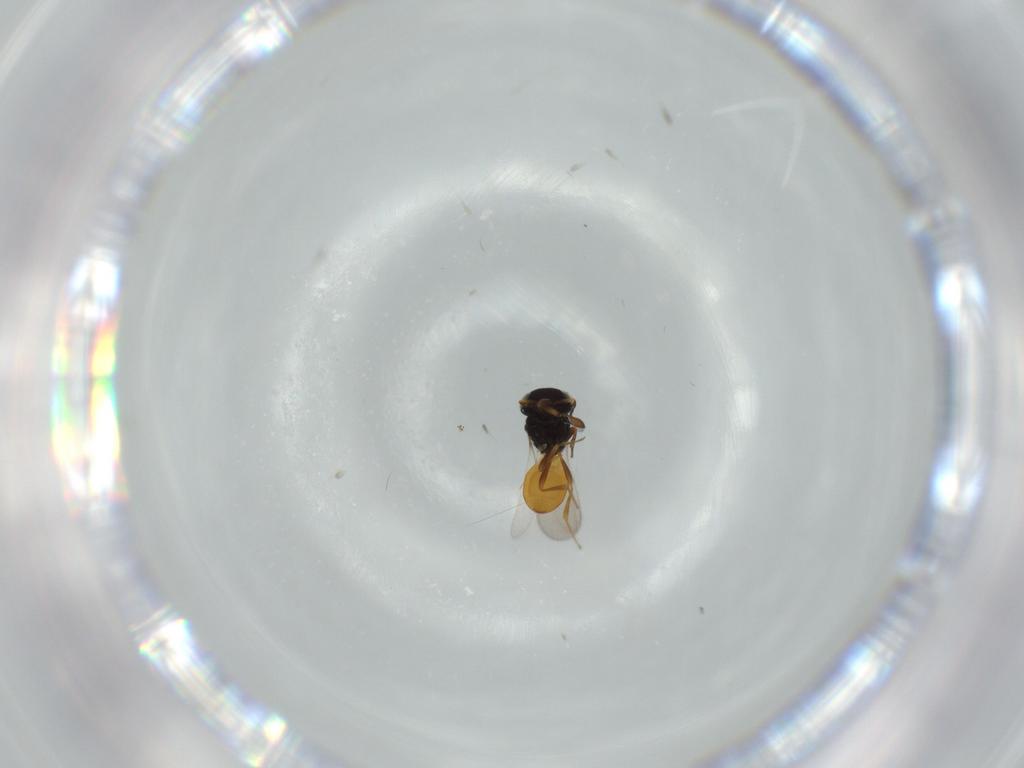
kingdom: Animalia
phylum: Arthropoda
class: Insecta
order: Hymenoptera
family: Scelionidae
